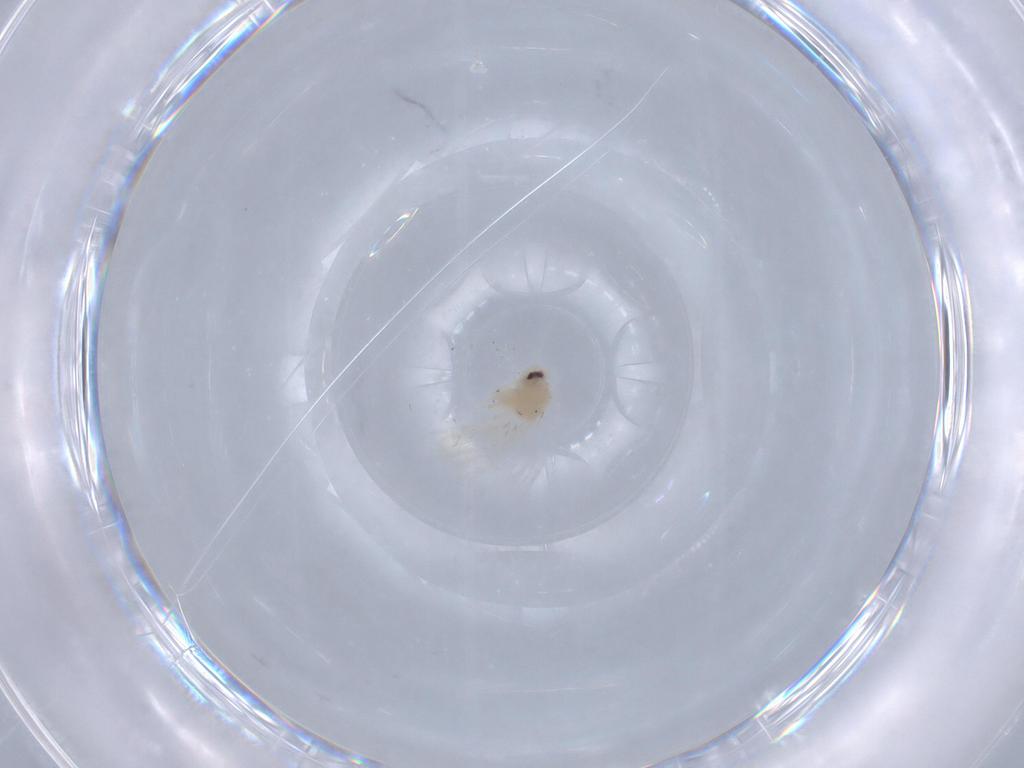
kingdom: Animalia
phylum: Arthropoda
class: Insecta
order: Hemiptera
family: Aleyrodidae
